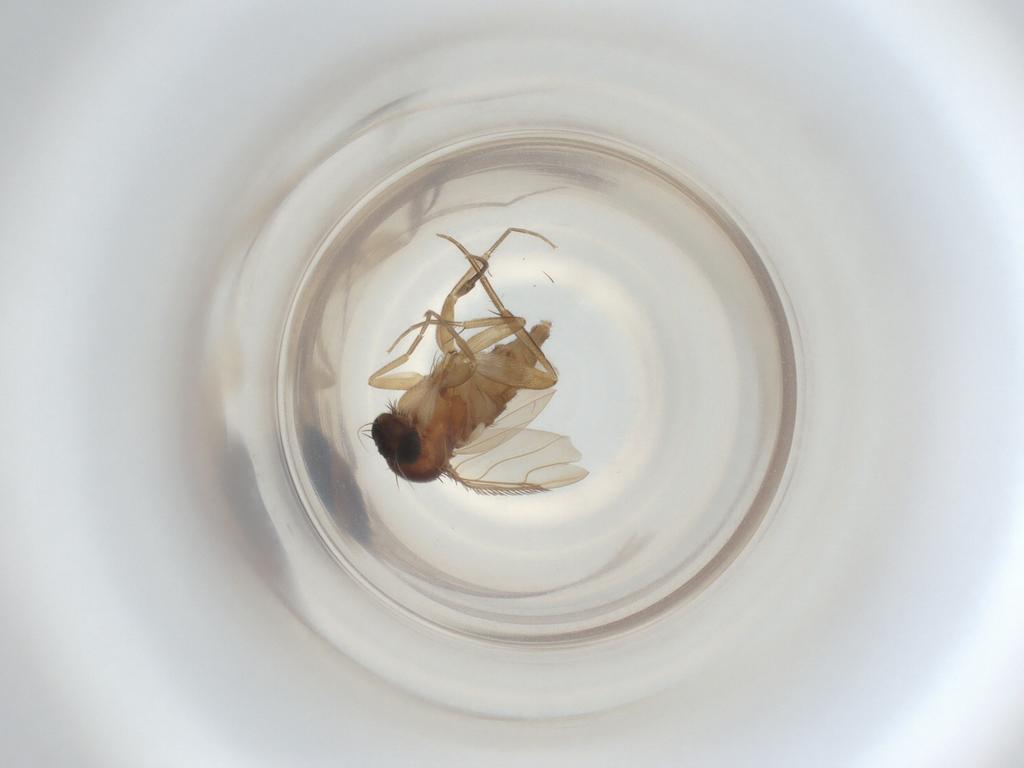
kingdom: Animalia
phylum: Arthropoda
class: Insecta
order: Diptera
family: Phoridae
